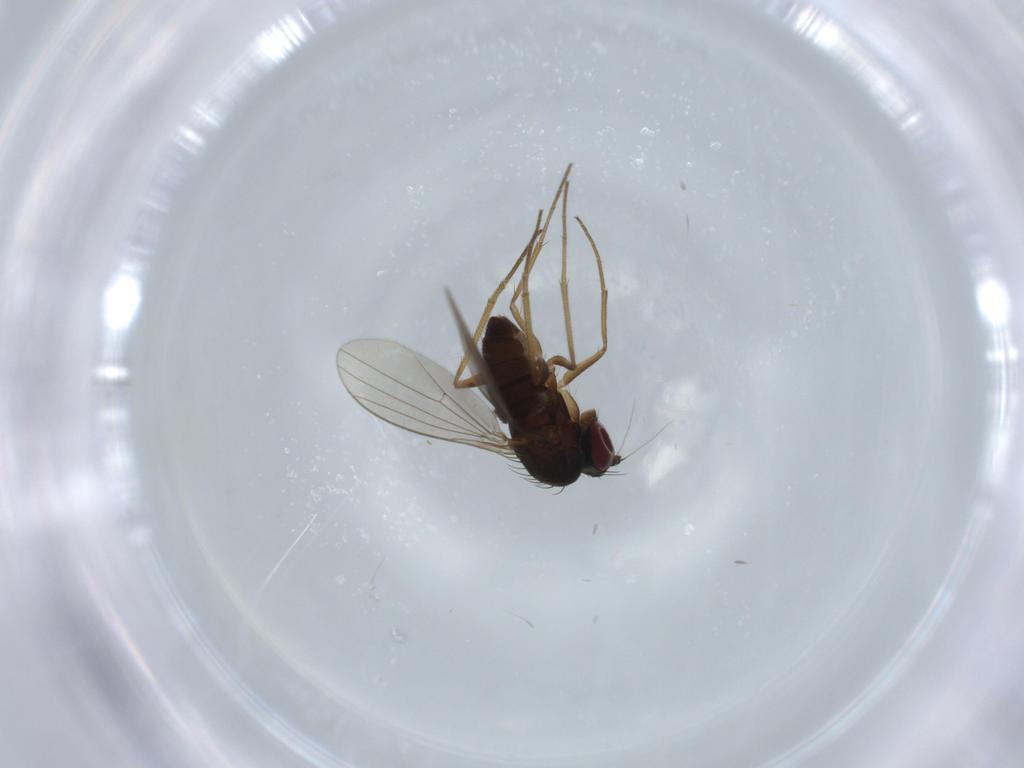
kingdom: Animalia
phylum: Arthropoda
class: Insecta
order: Diptera
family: Dolichopodidae
